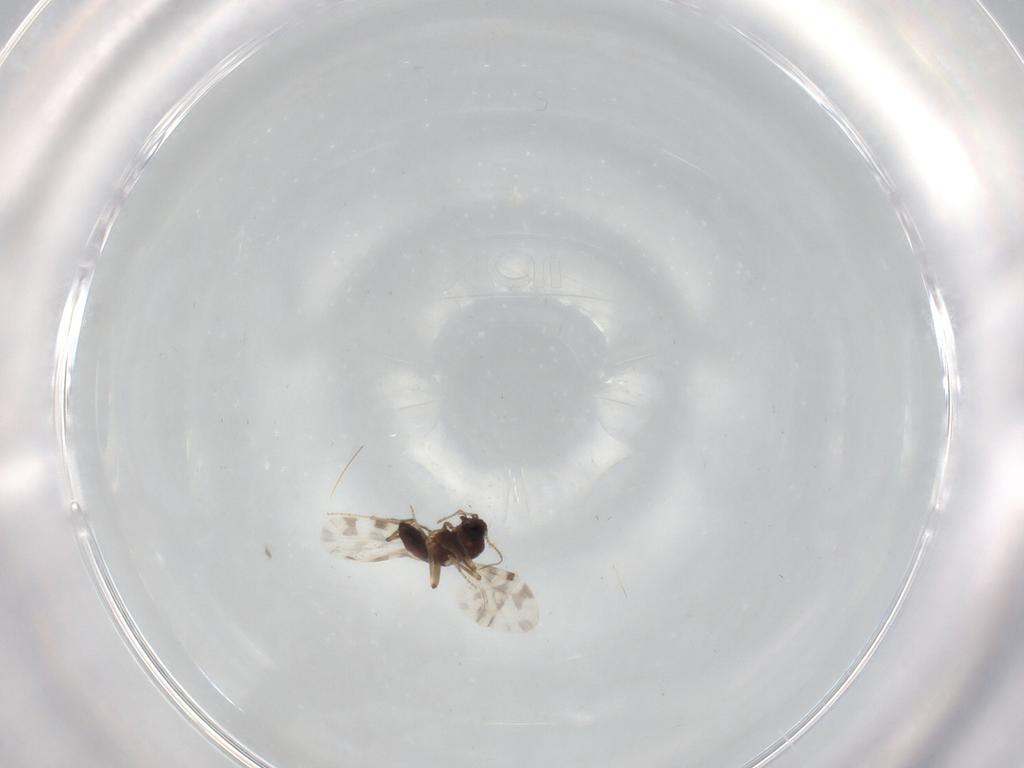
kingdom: Animalia
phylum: Arthropoda
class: Insecta
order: Diptera
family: Ceratopogonidae
